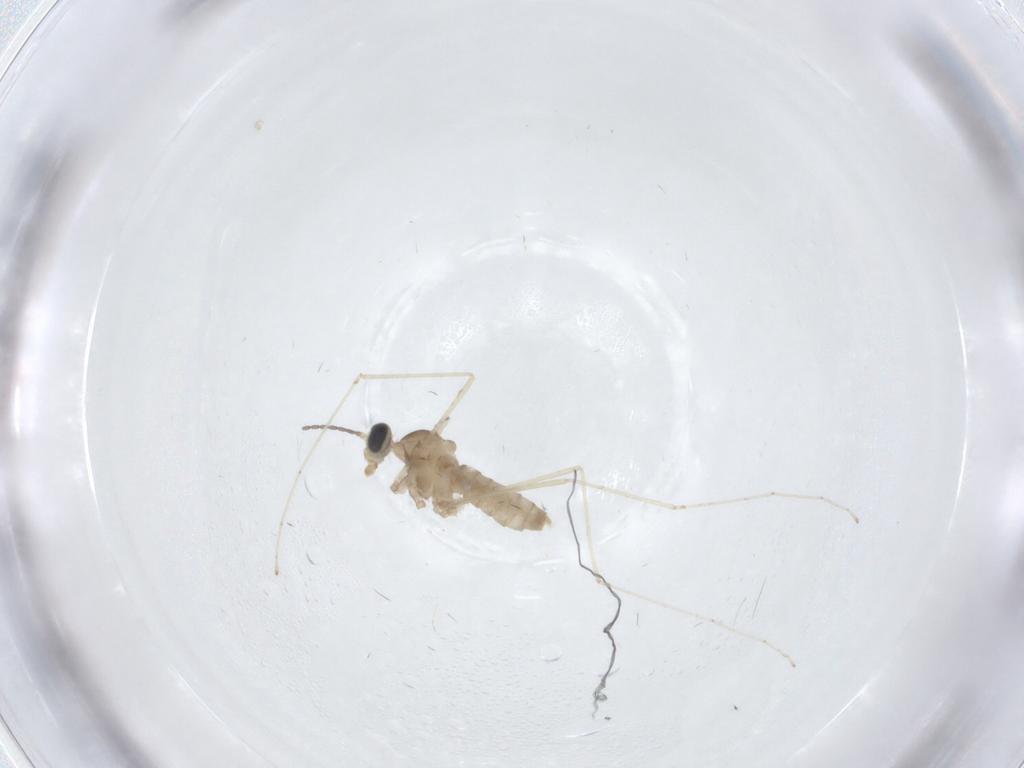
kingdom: Animalia
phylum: Arthropoda
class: Insecta
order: Diptera
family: Cecidomyiidae
